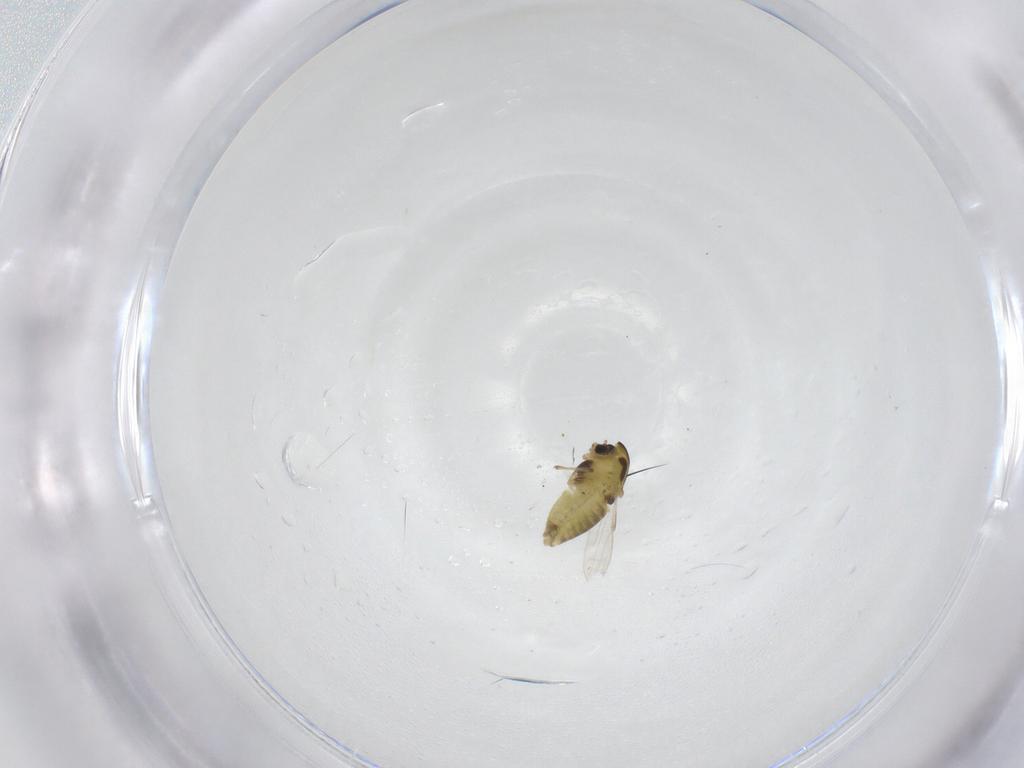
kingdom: Animalia
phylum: Arthropoda
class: Insecta
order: Diptera
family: Chironomidae
